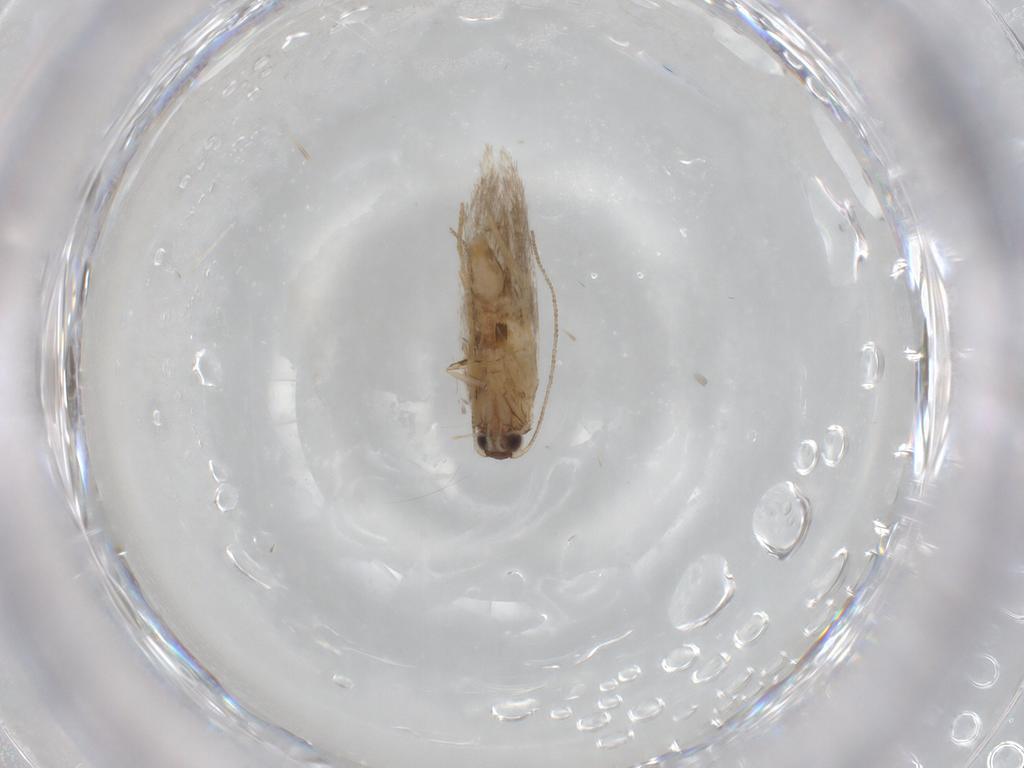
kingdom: Animalia
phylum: Arthropoda
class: Insecta
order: Lepidoptera
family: Tineidae
